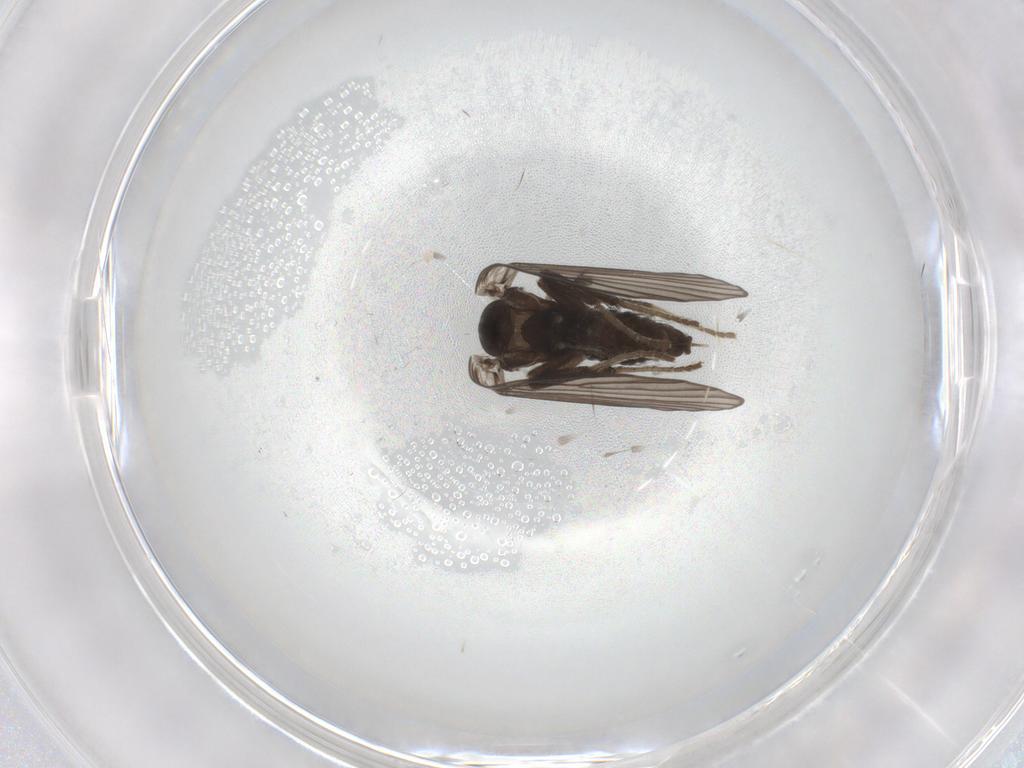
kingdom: Animalia
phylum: Arthropoda
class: Insecta
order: Diptera
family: Psychodidae
